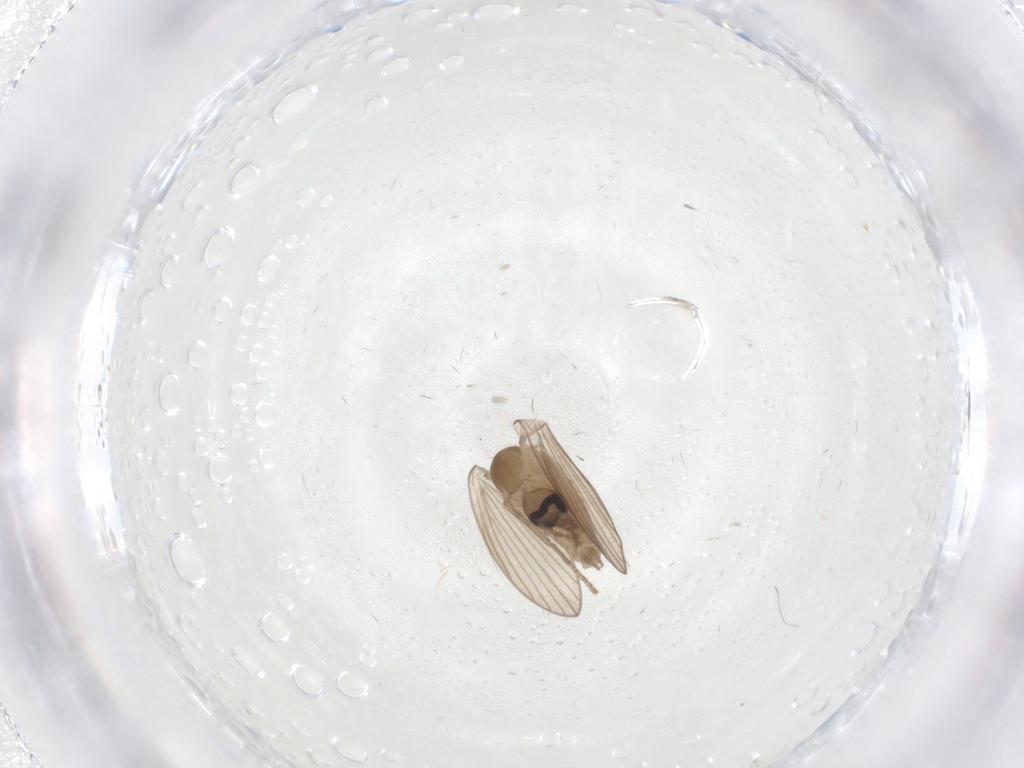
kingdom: Animalia
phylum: Arthropoda
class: Insecta
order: Diptera
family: Psychodidae
